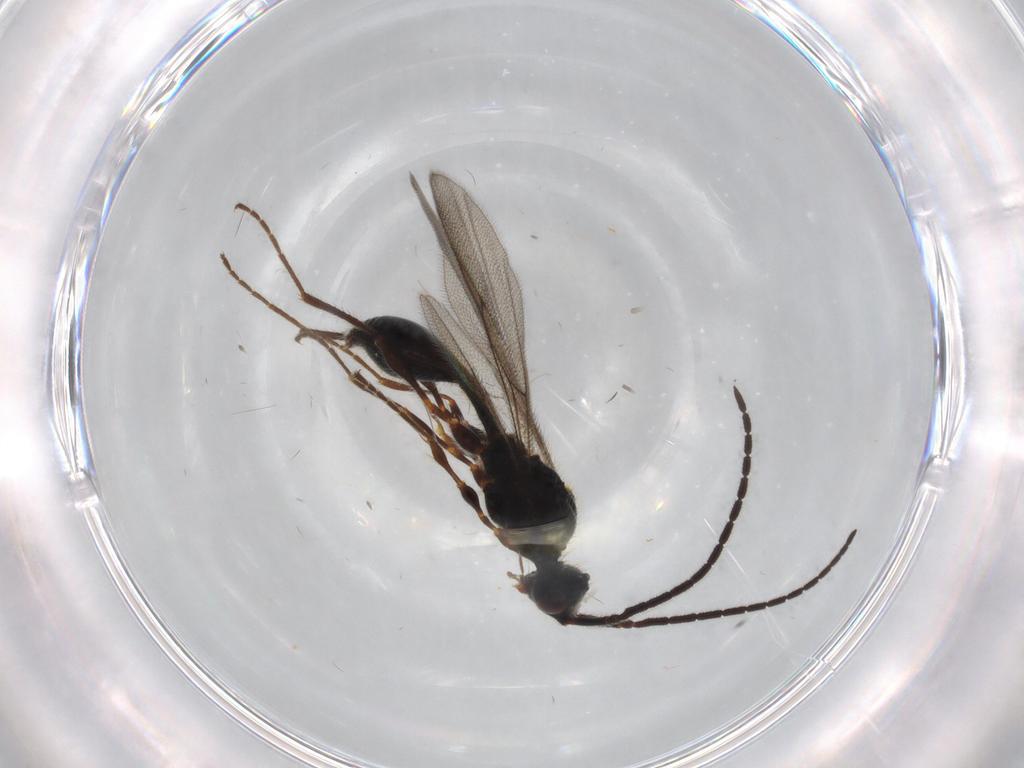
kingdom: Animalia
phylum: Arthropoda
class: Insecta
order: Hymenoptera
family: Diapriidae
